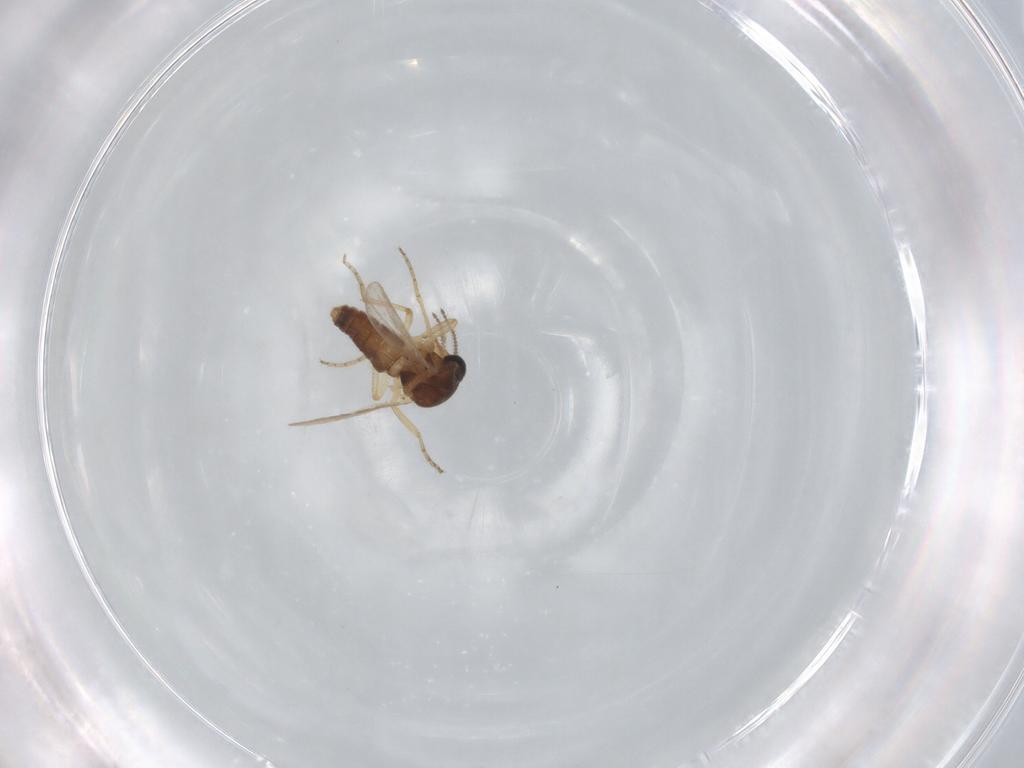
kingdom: Animalia
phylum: Arthropoda
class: Insecta
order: Diptera
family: Ceratopogonidae
